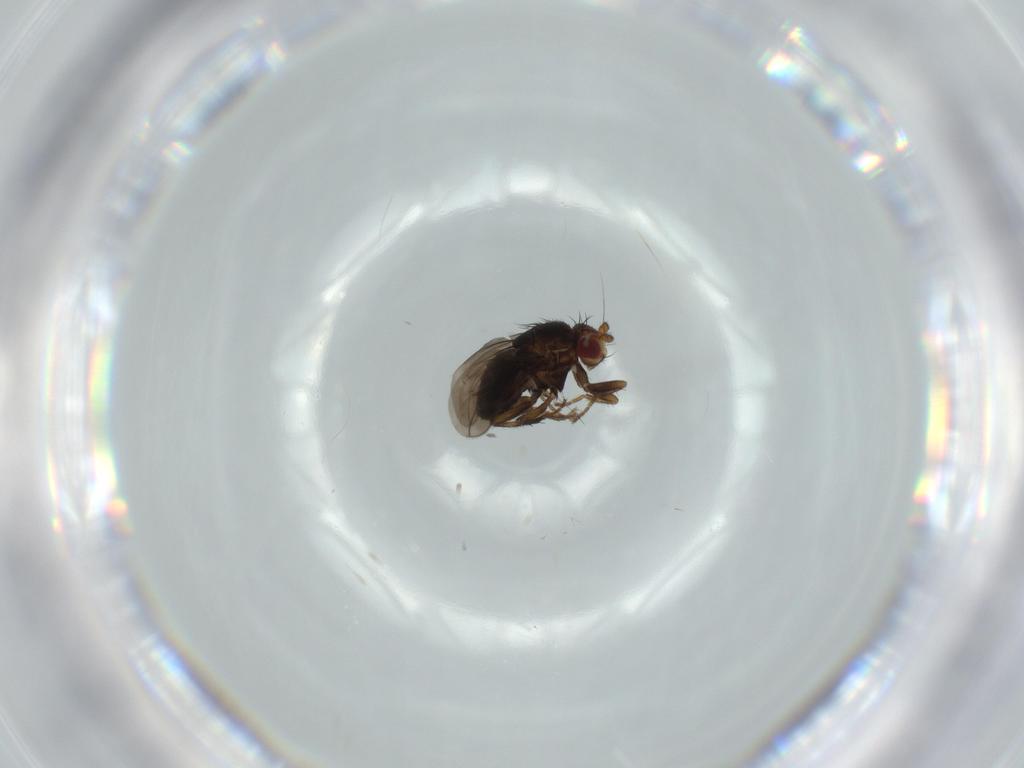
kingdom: Animalia
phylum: Arthropoda
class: Insecta
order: Diptera
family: Sphaeroceridae
